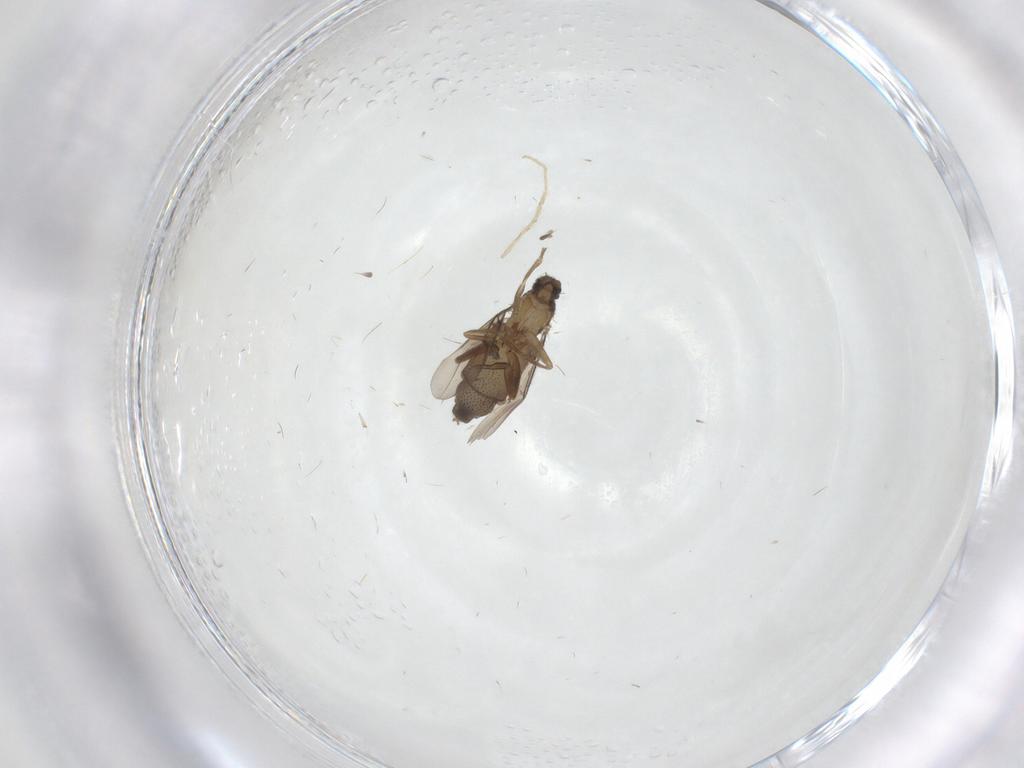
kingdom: Animalia
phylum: Arthropoda
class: Insecta
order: Diptera
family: Phoridae
